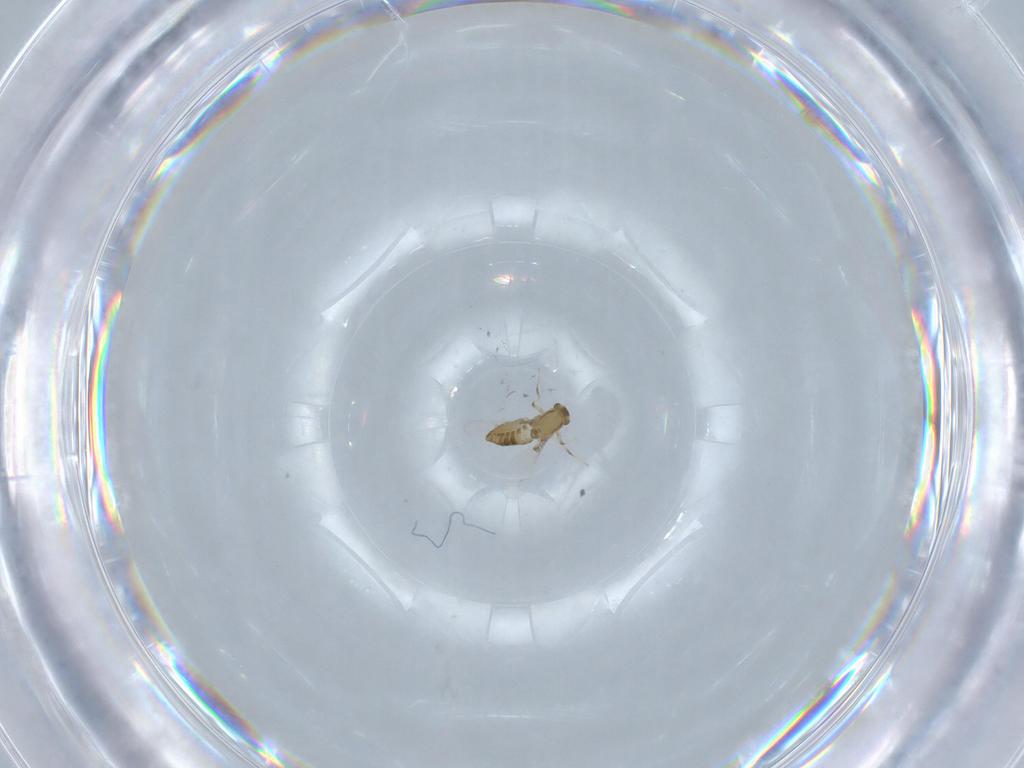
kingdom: Animalia
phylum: Arthropoda
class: Insecta
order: Diptera
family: Chironomidae
